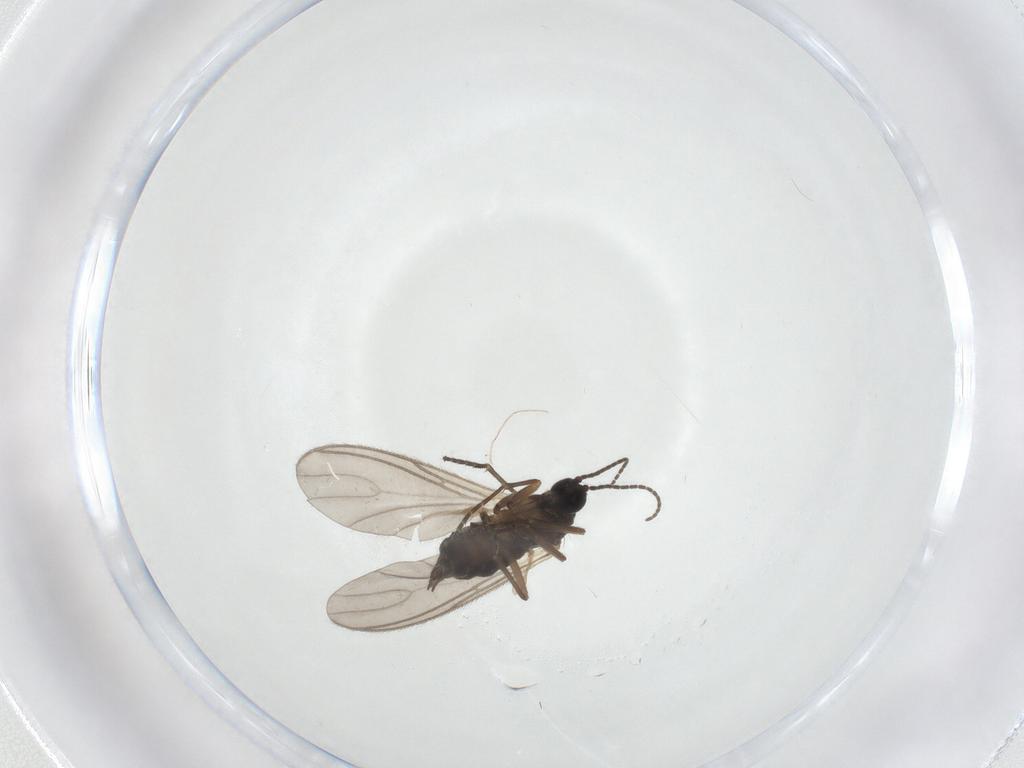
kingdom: Animalia
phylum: Arthropoda
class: Insecta
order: Diptera
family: Sciaridae
